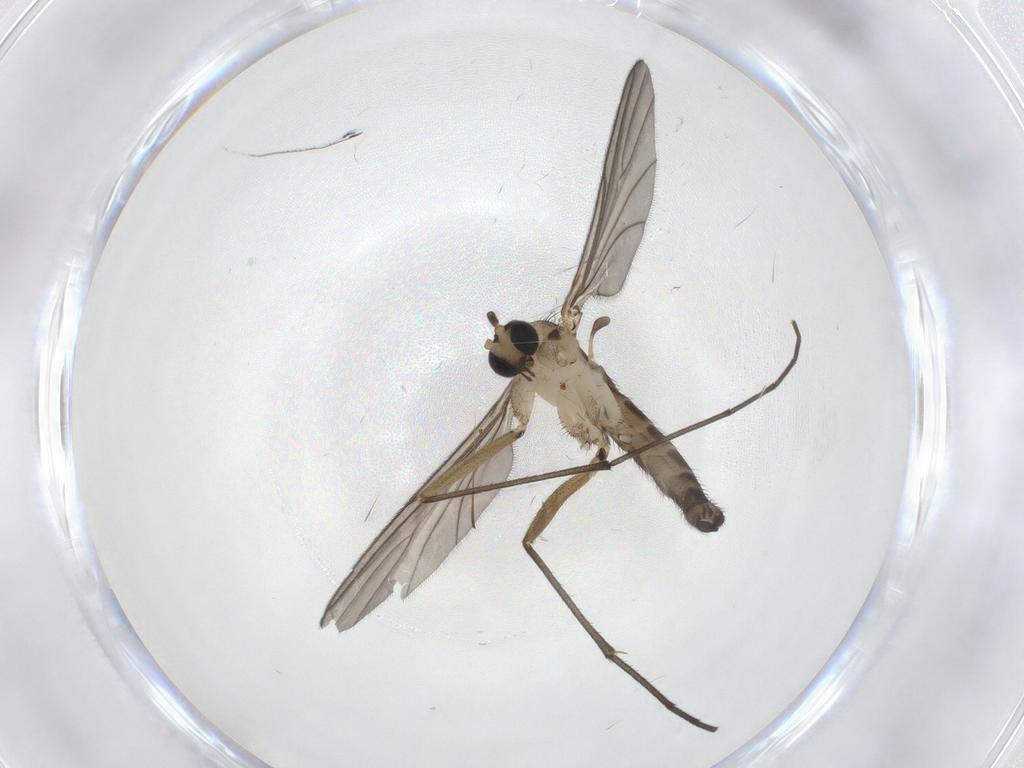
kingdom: Animalia
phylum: Arthropoda
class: Insecta
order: Diptera
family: Sciaridae
